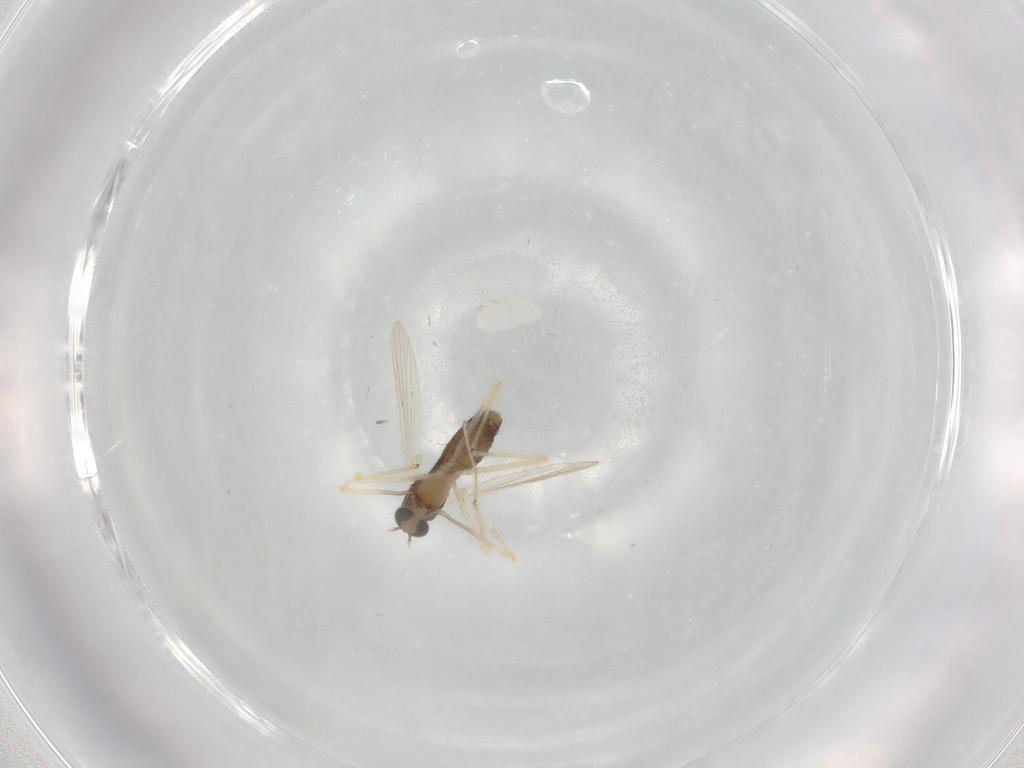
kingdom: Animalia
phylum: Arthropoda
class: Insecta
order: Diptera
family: Chironomidae
